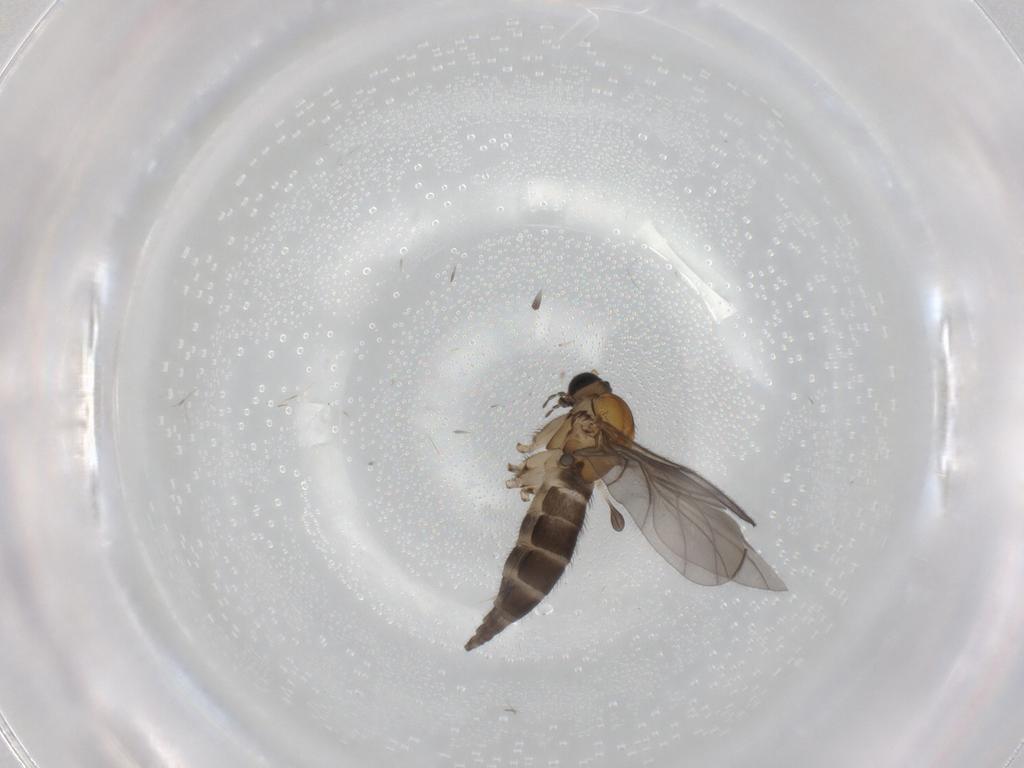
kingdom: Animalia
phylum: Arthropoda
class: Insecta
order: Diptera
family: Sciaridae
